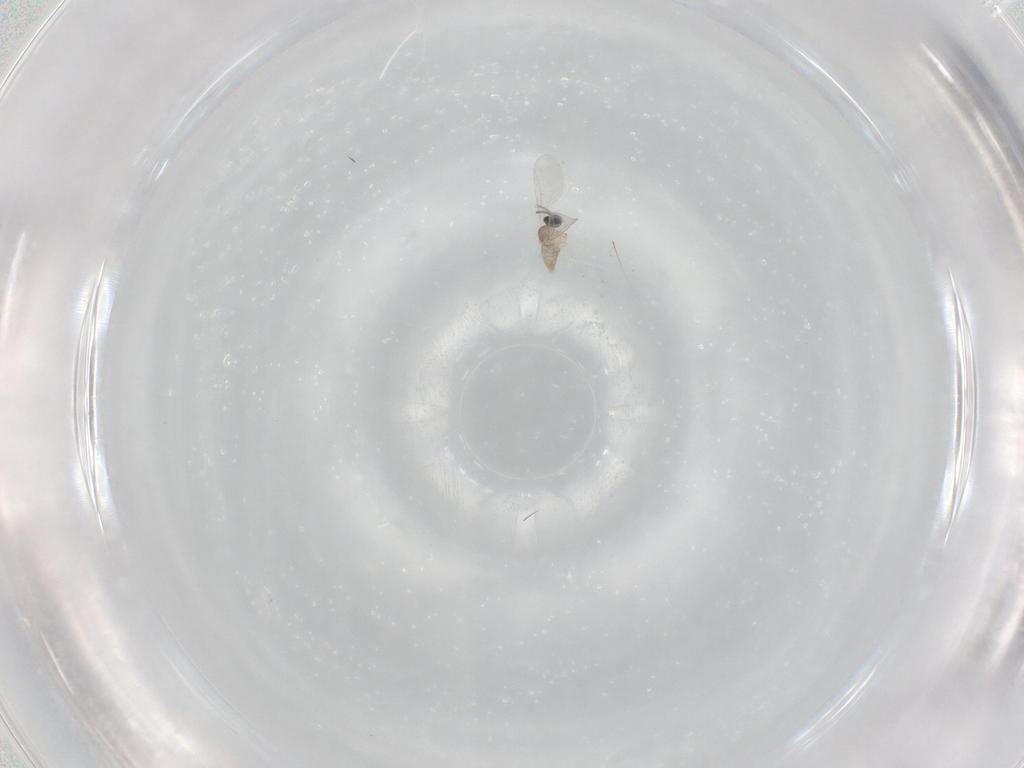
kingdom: Animalia
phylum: Arthropoda
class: Insecta
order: Diptera
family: Cecidomyiidae
